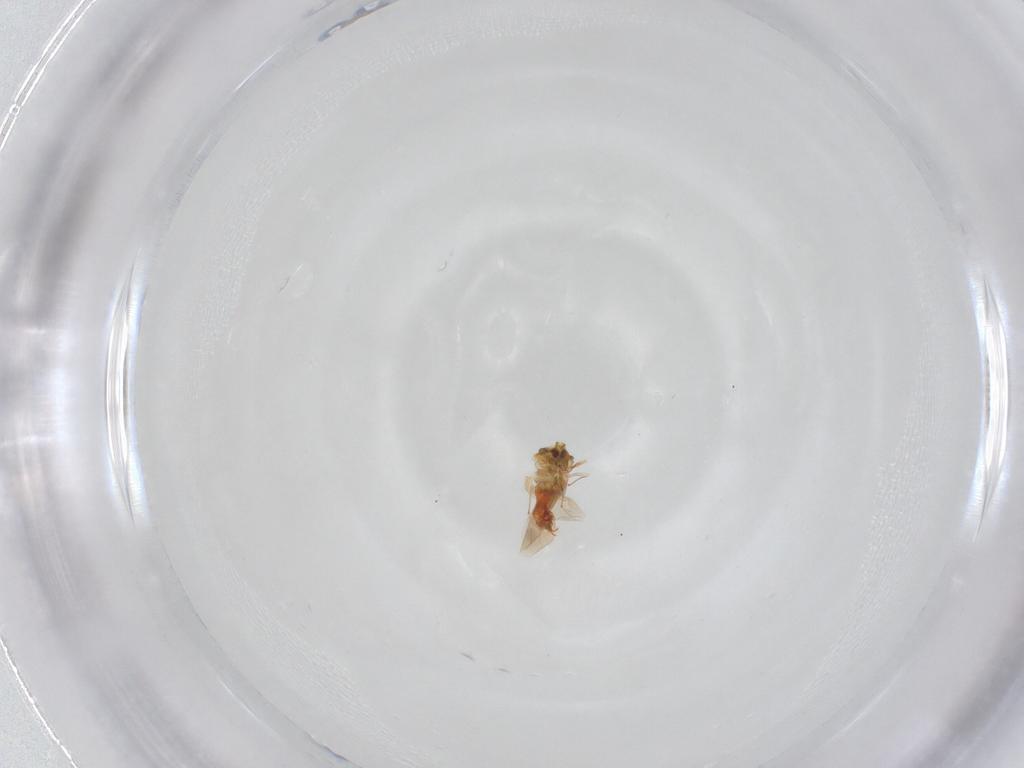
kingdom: Animalia
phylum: Arthropoda
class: Insecta
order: Hemiptera
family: Aleyrodidae
